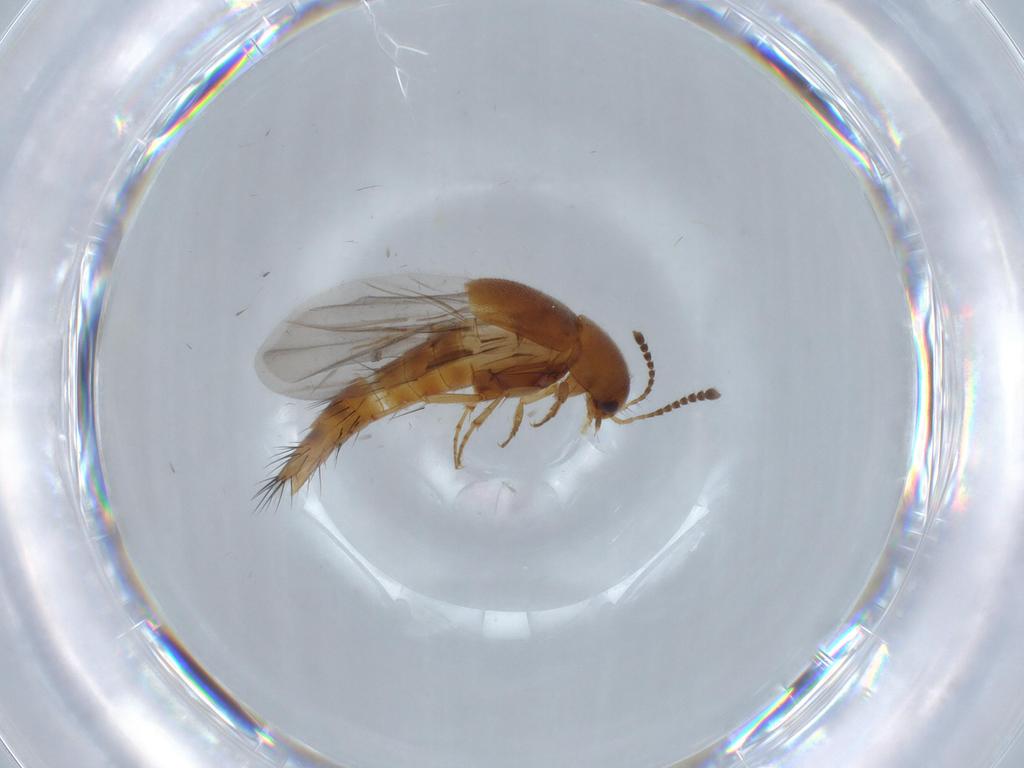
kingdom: Animalia
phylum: Arthropoda
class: Insecta
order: Coleoptera
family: Staphylinidae
